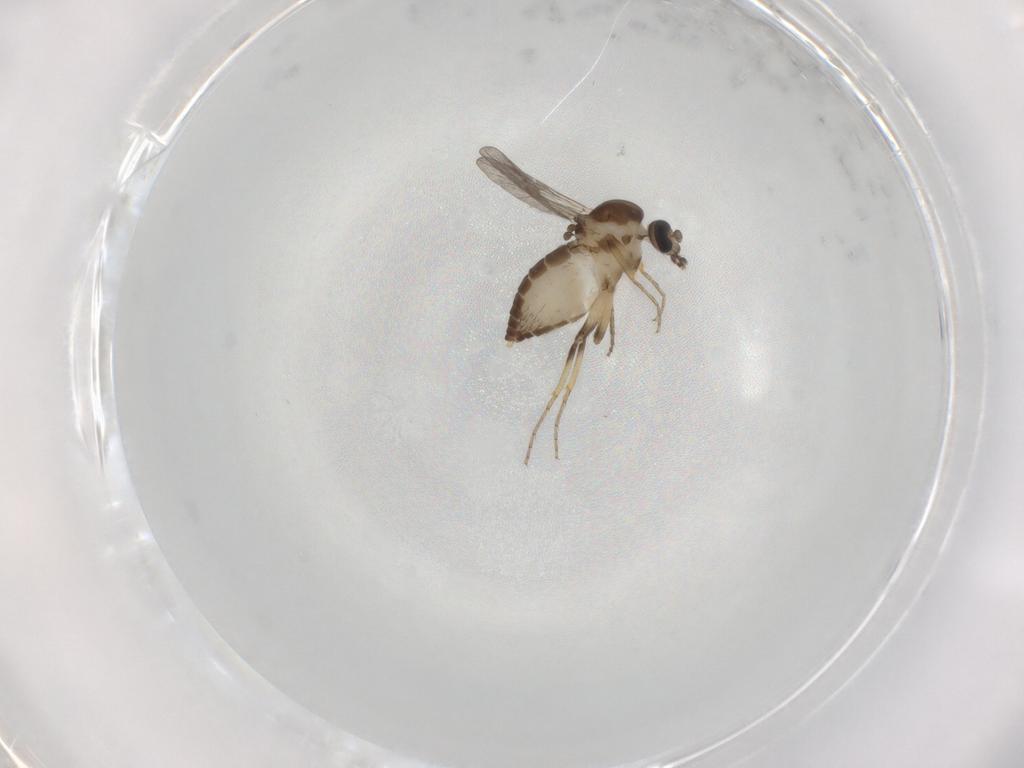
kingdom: Animalia
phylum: Arthropoda
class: Insecta
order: Diptera
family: Ceratopogonidae
